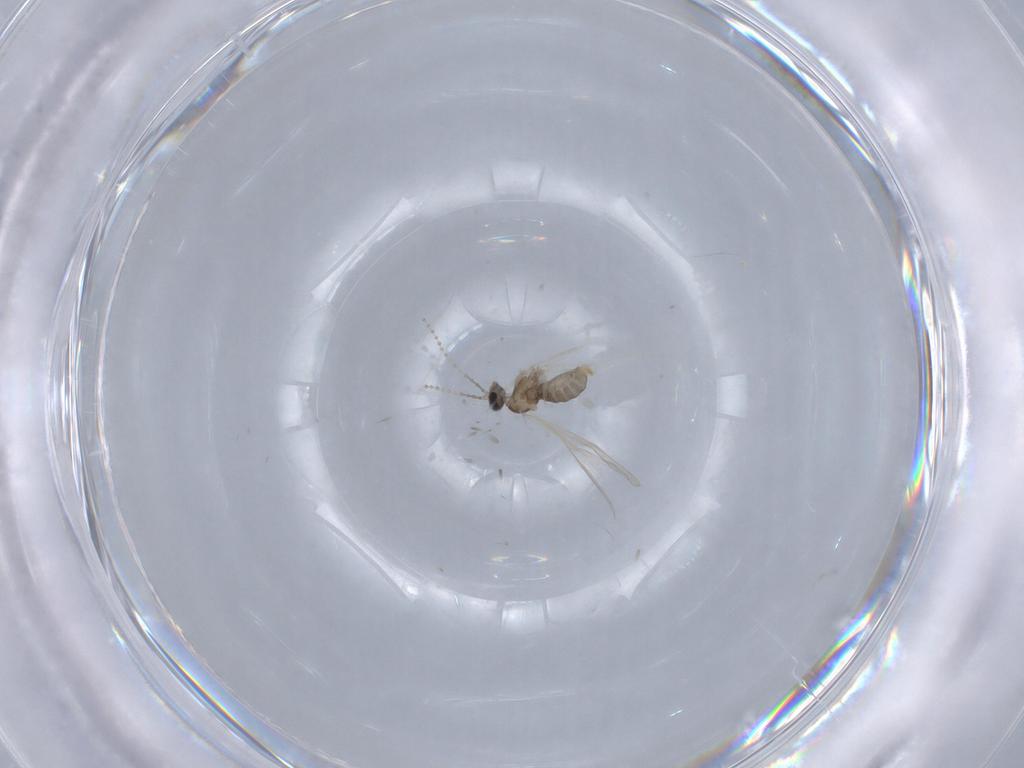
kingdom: Animalia
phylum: Arthropoda
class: Insecta
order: Diptera
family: Cecidomyiidae
